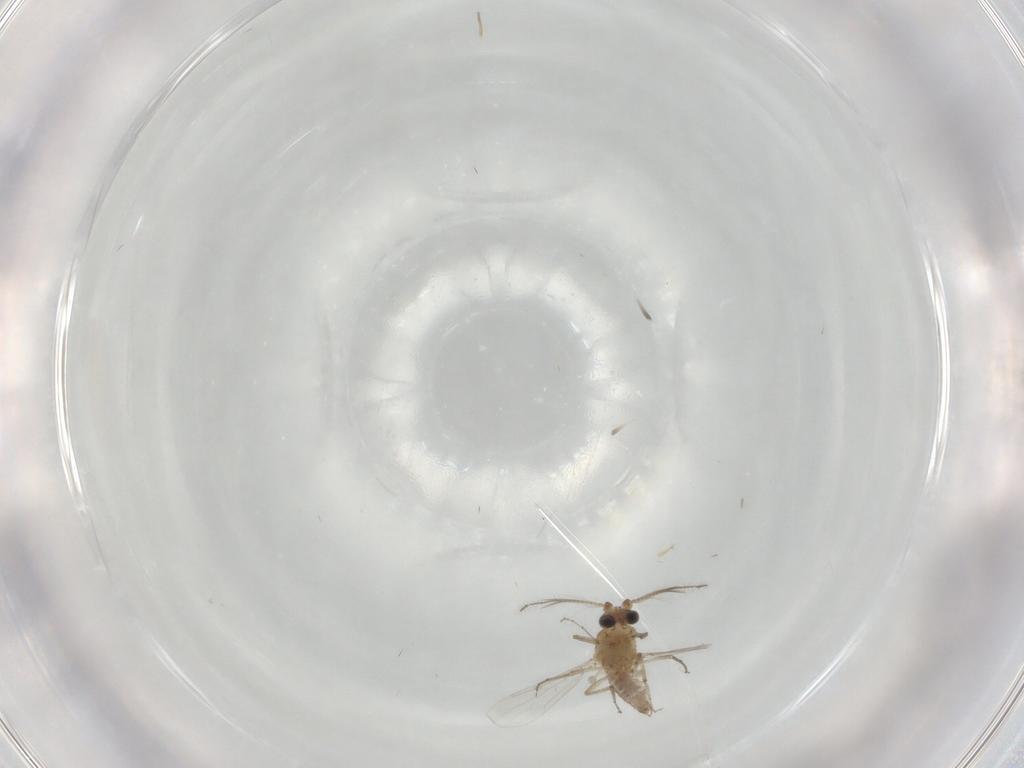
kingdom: Animalia
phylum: Arthropoda
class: Insecta
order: Diptera
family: Ceratopogonidae
